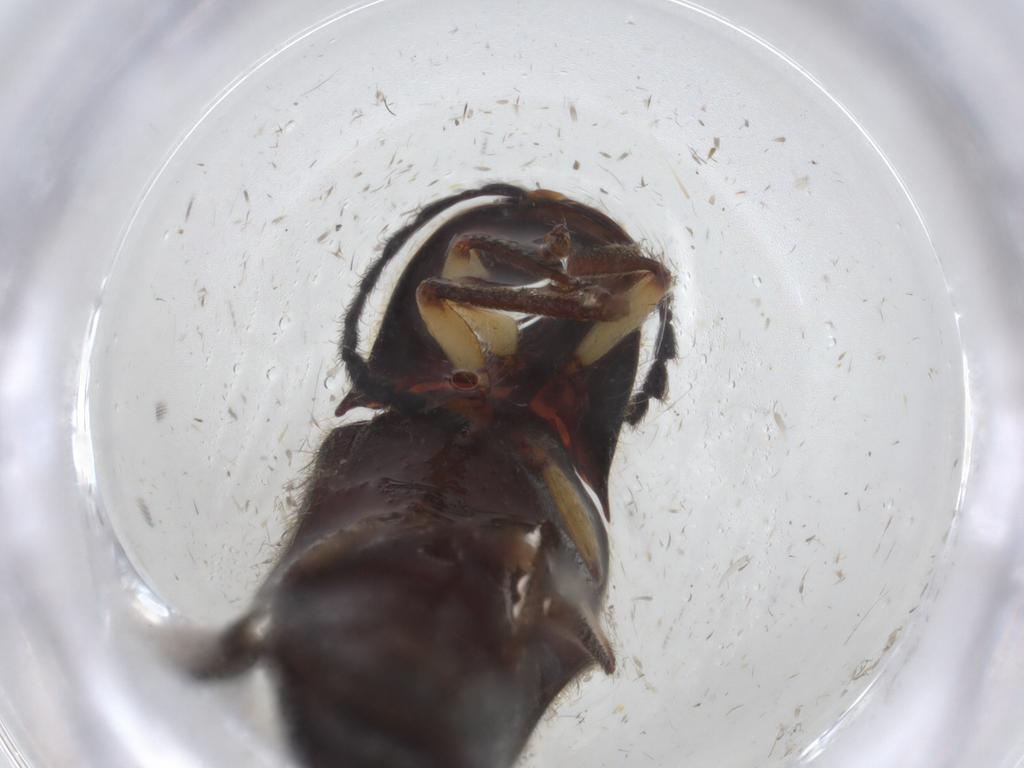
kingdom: Animalia
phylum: Arthropoda
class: Insecta
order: Coleoptera
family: Elateridae
